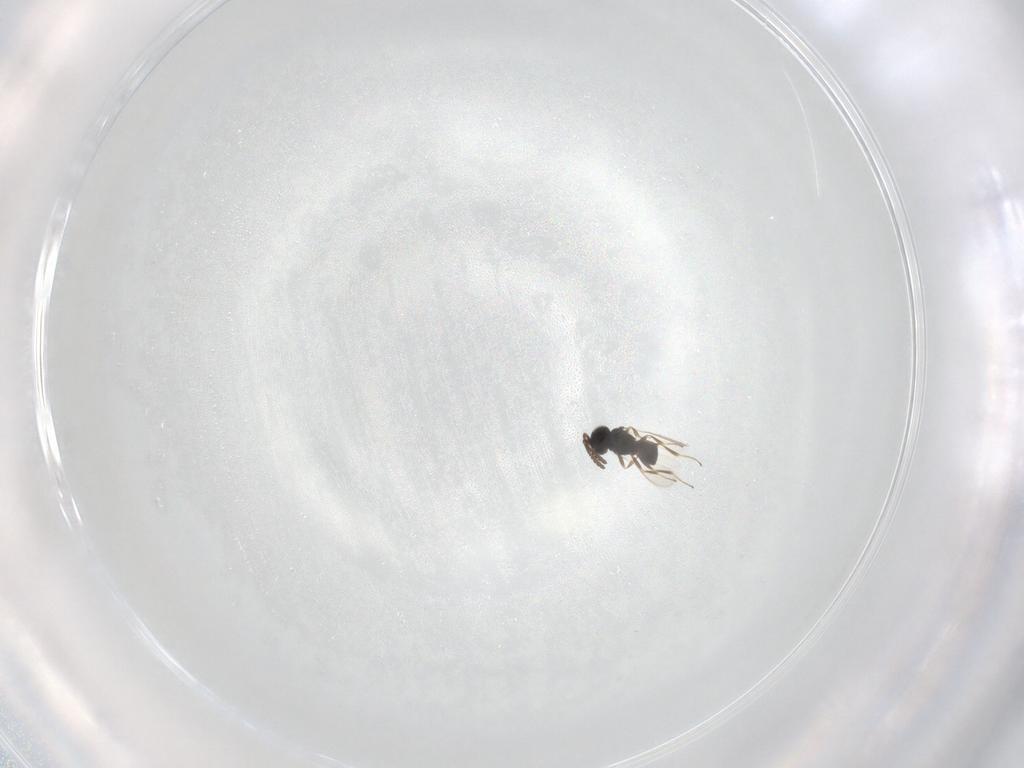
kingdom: Animalia
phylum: Arthropoda
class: Insecta
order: Hymenoptera
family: Scelionidae
